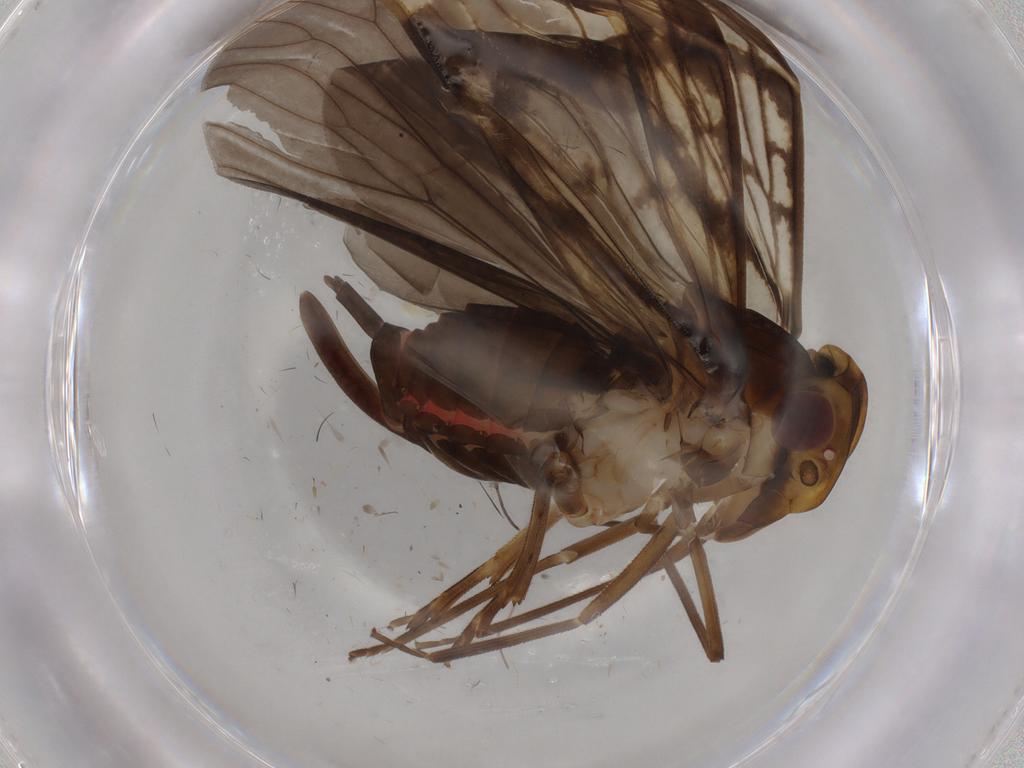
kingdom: Animalia
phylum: Arthropoda
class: Insecta
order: Hemiptera
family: Cixiidae
